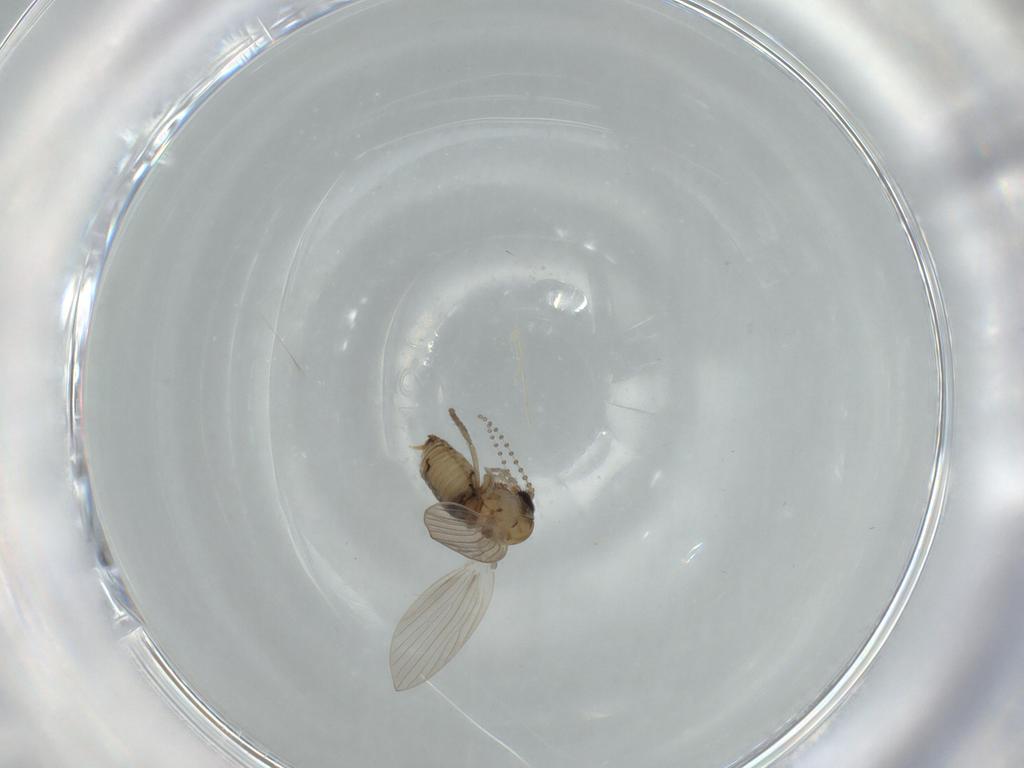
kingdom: Animalia
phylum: Arthropoda
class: Insecta
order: Diptera
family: Psychodidae
